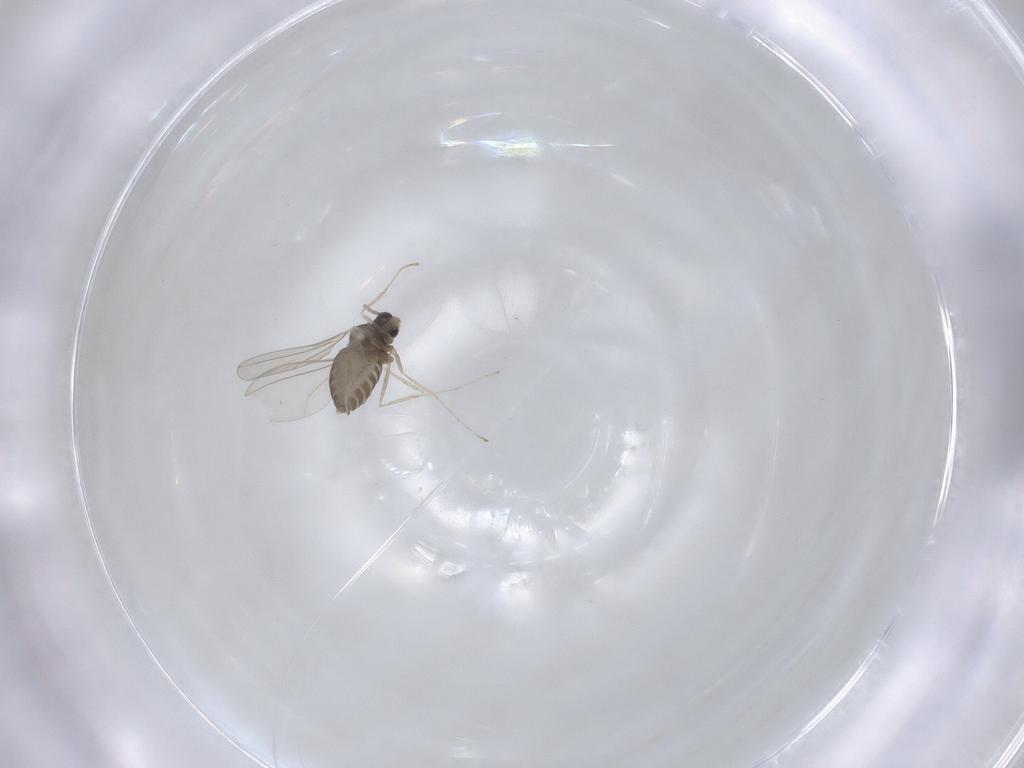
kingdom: Animalia
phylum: Arthropoda
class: Insecta
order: Diptera
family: Cecidomyiidae
